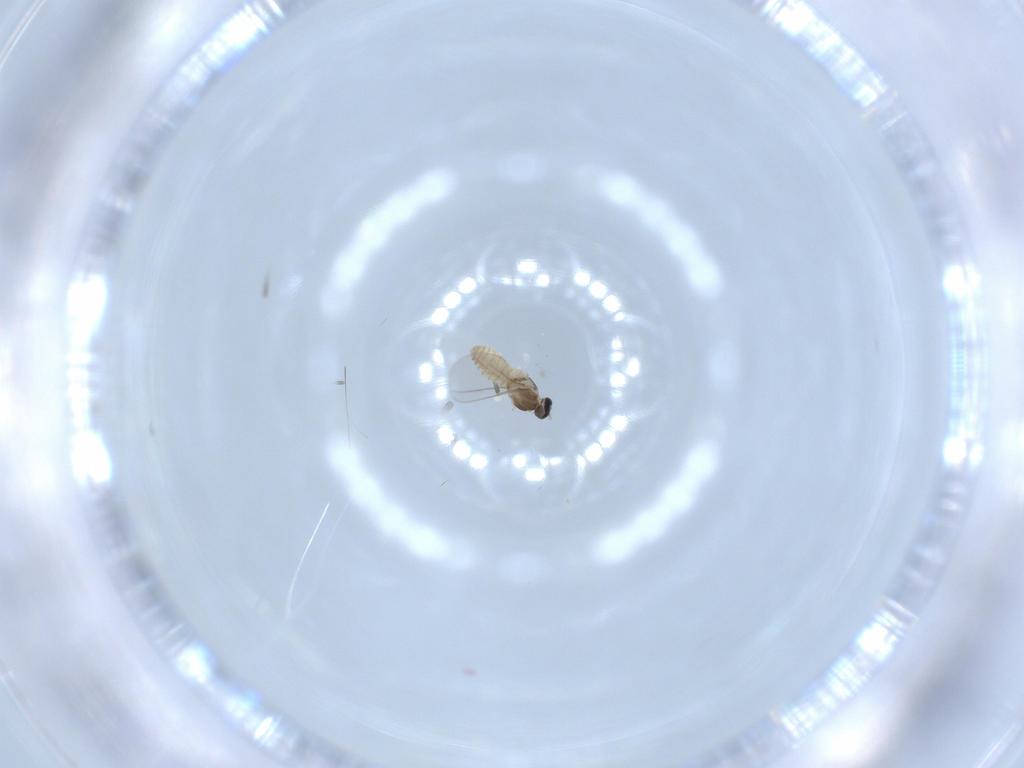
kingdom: Animalia
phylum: Arthropoda
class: Insecta
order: Diptera
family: Cecidomyiidae
